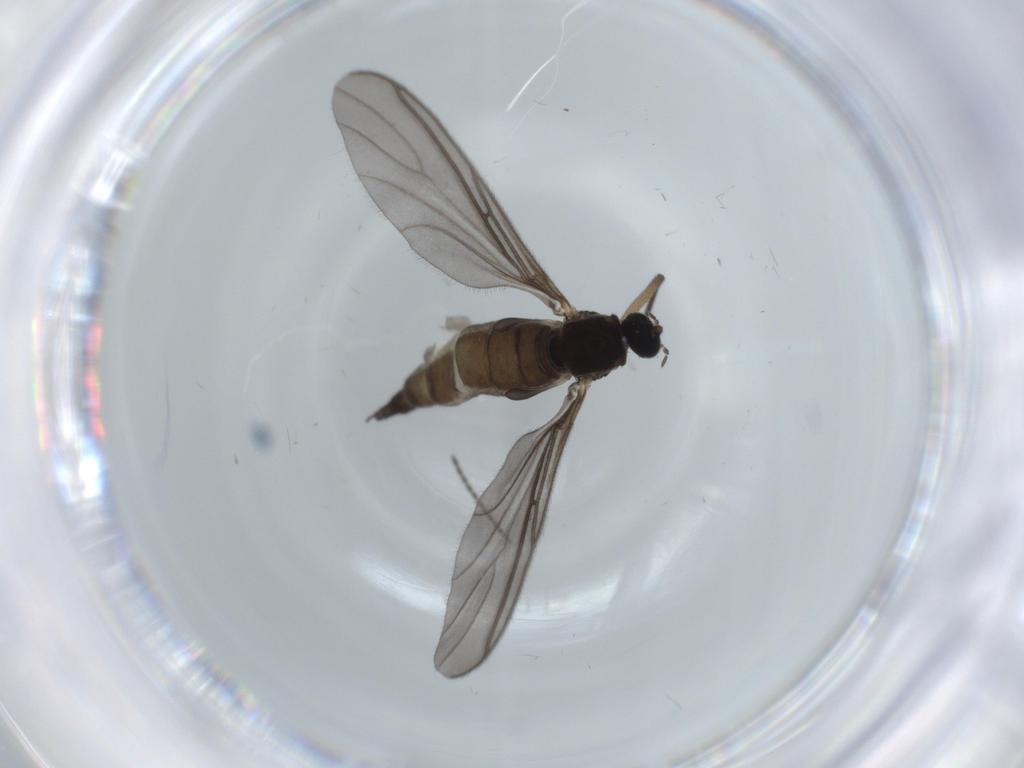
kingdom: Animalia
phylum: Arthropoda
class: Insecta
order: Diptera
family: Sciaridae
